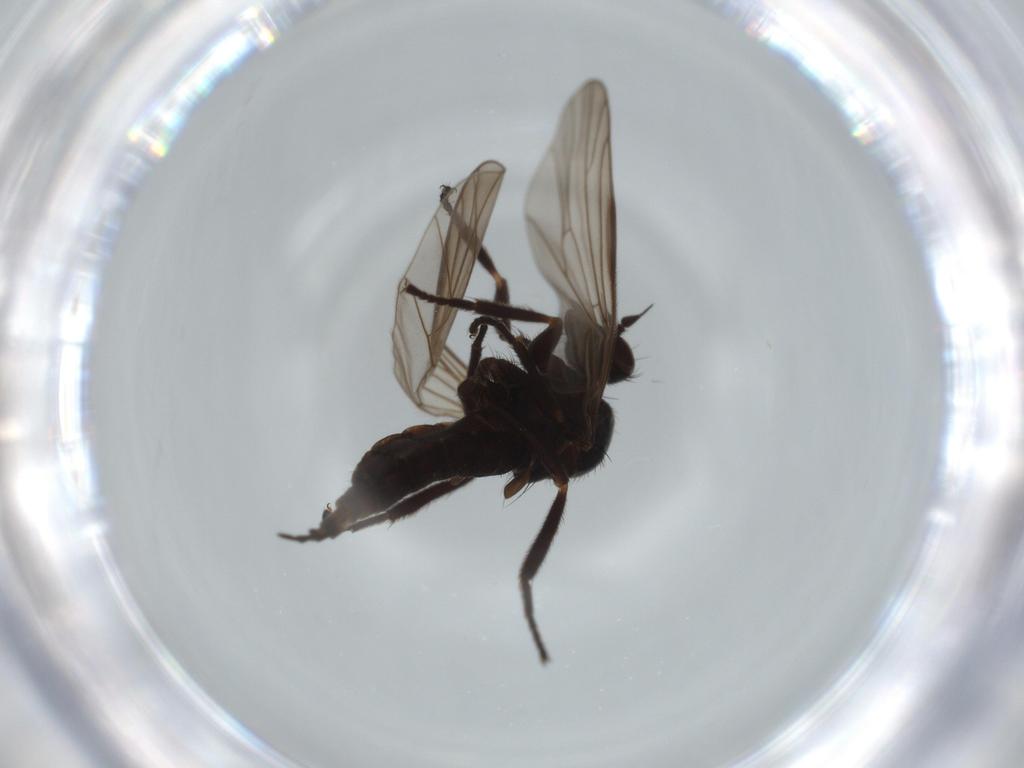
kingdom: Animalia
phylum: Arthropoda
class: Insecta
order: Diptera
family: Empididae
